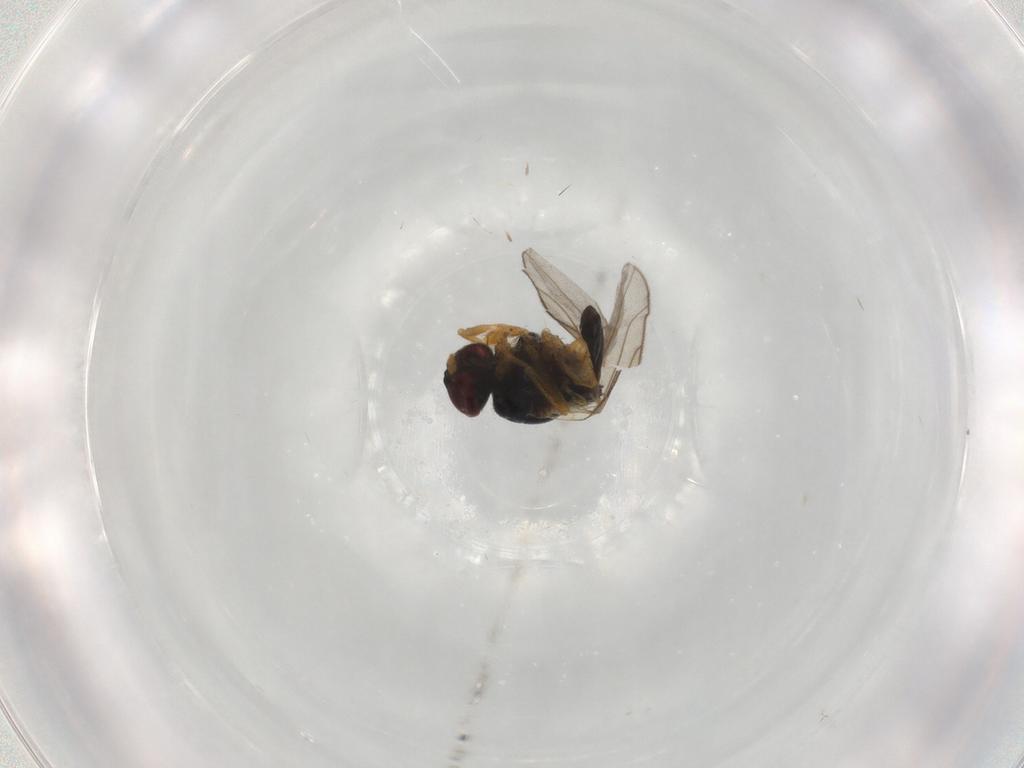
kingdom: Animalia
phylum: Arthropoda
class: Insecta
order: Diptera
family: Chloropidae
